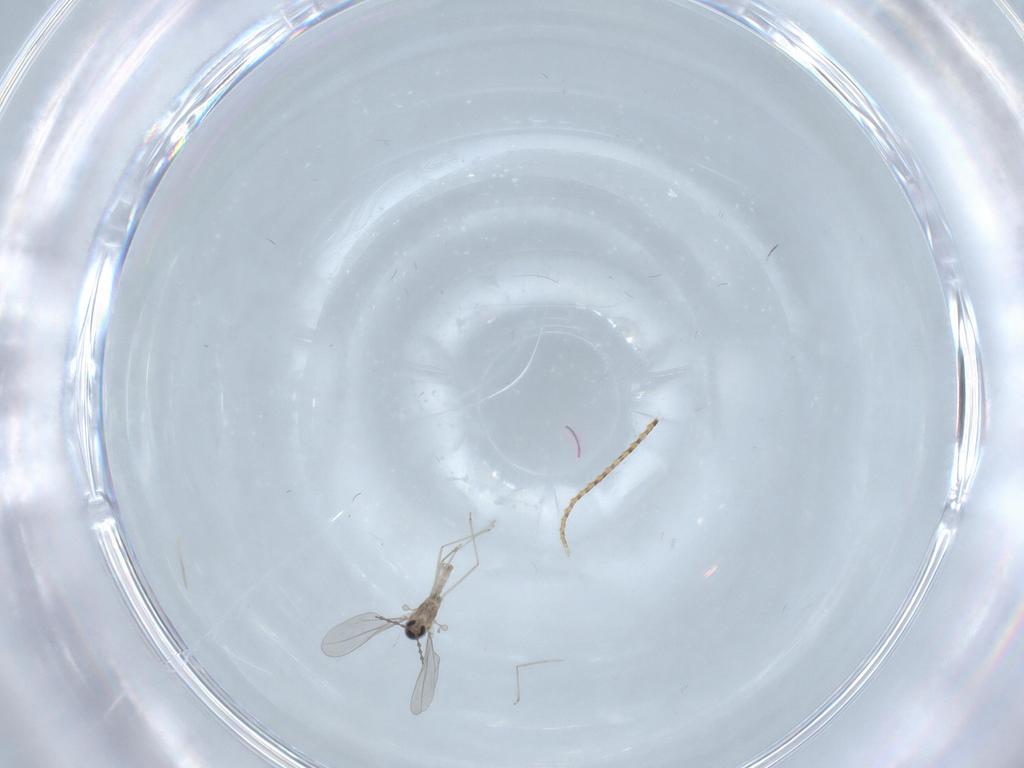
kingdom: Animalia
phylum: Arthropoda
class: Insecta
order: Diptera
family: Cecidomyiidae
